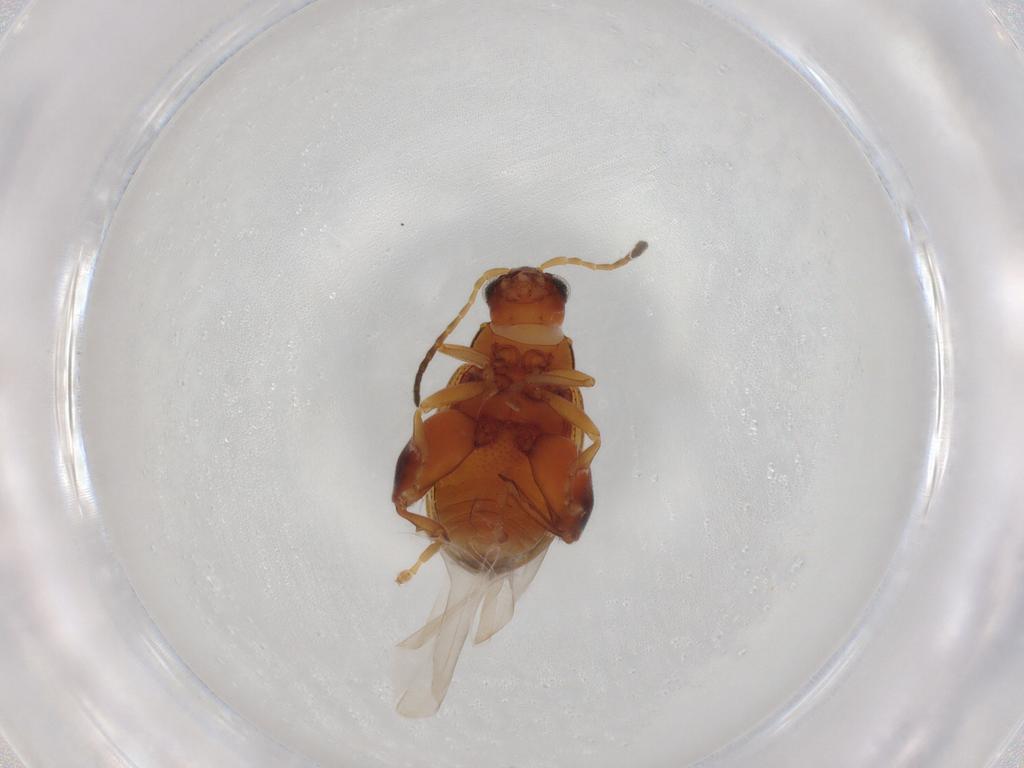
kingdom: Animalia
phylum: Arthropoda
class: Insecta
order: Coleoptera
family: Chrysomelidae
